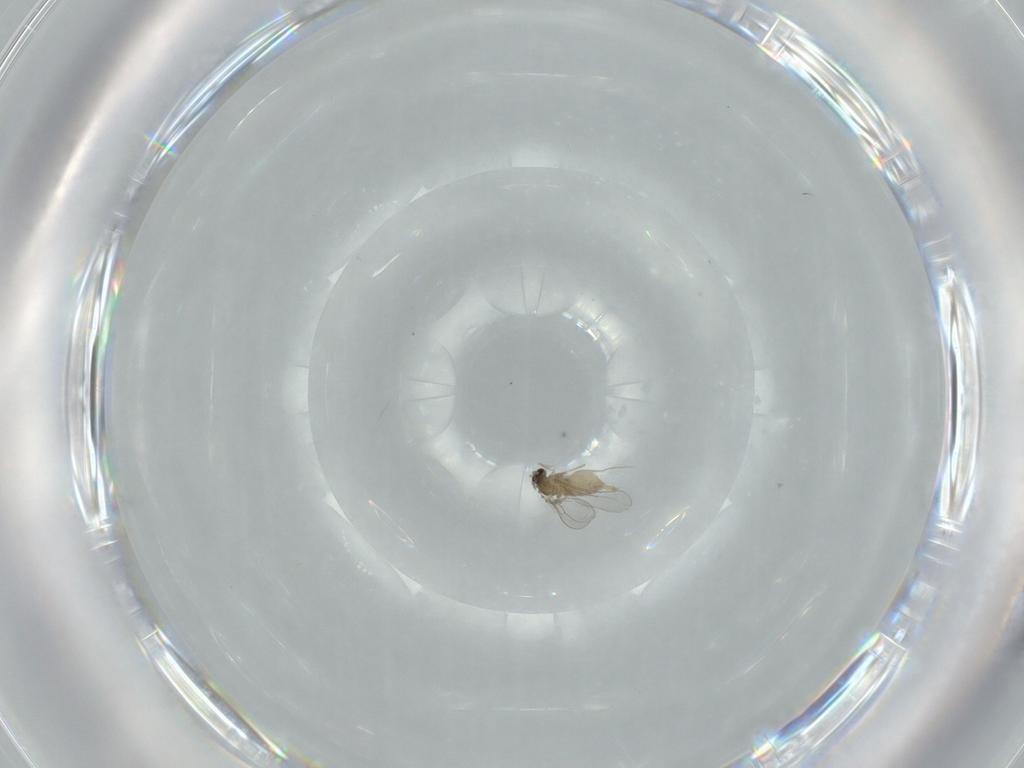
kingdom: Animalia
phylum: Arthropoda
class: Insecta
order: Diptera
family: Cecidomyiidae
